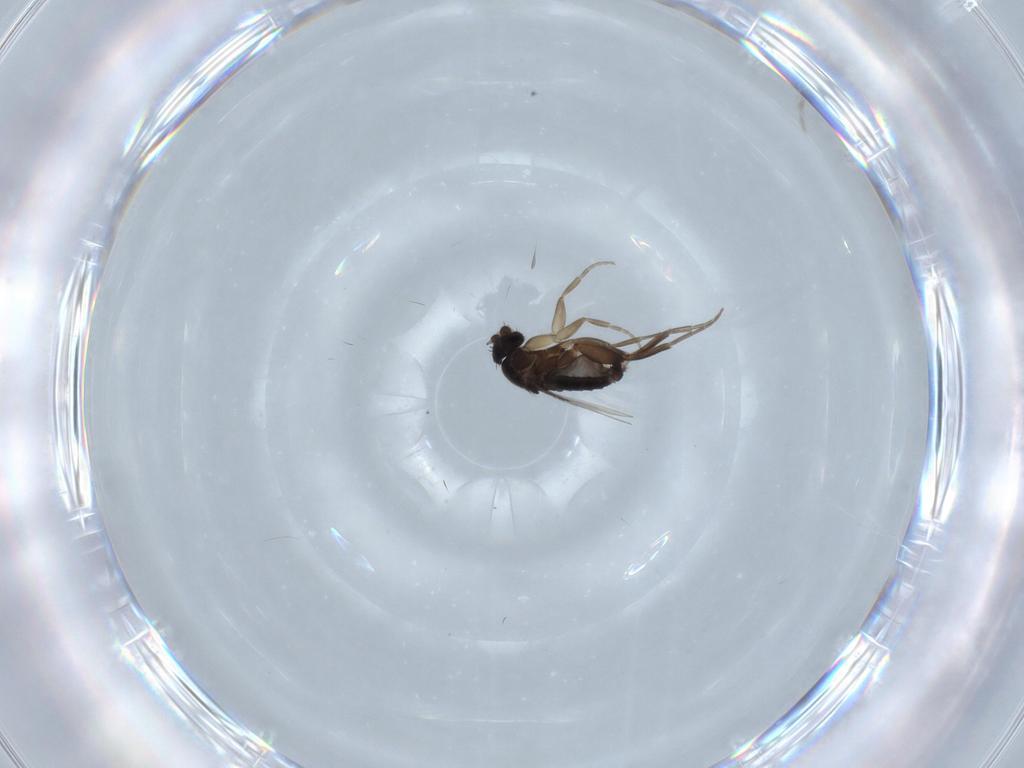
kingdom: Animalia
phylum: Arthropoda
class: Insecta
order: Diptera
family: Phoridae
